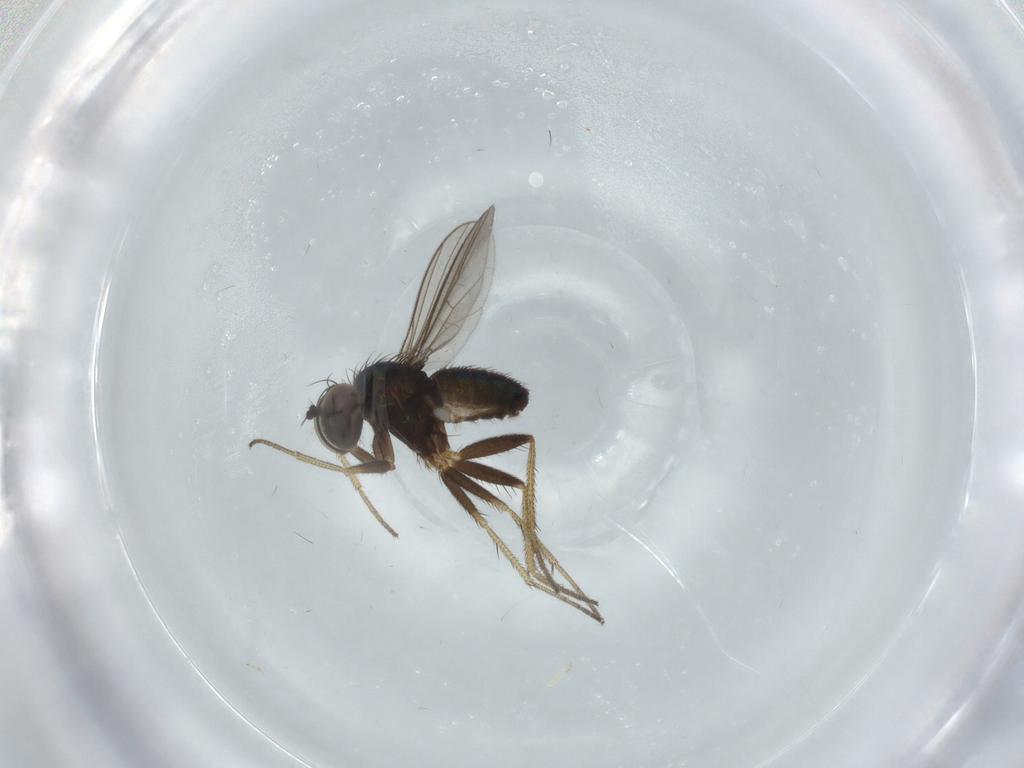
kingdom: Animalia
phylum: Arthropoda
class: Insecta
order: Diptera
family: Dolichopodidae
